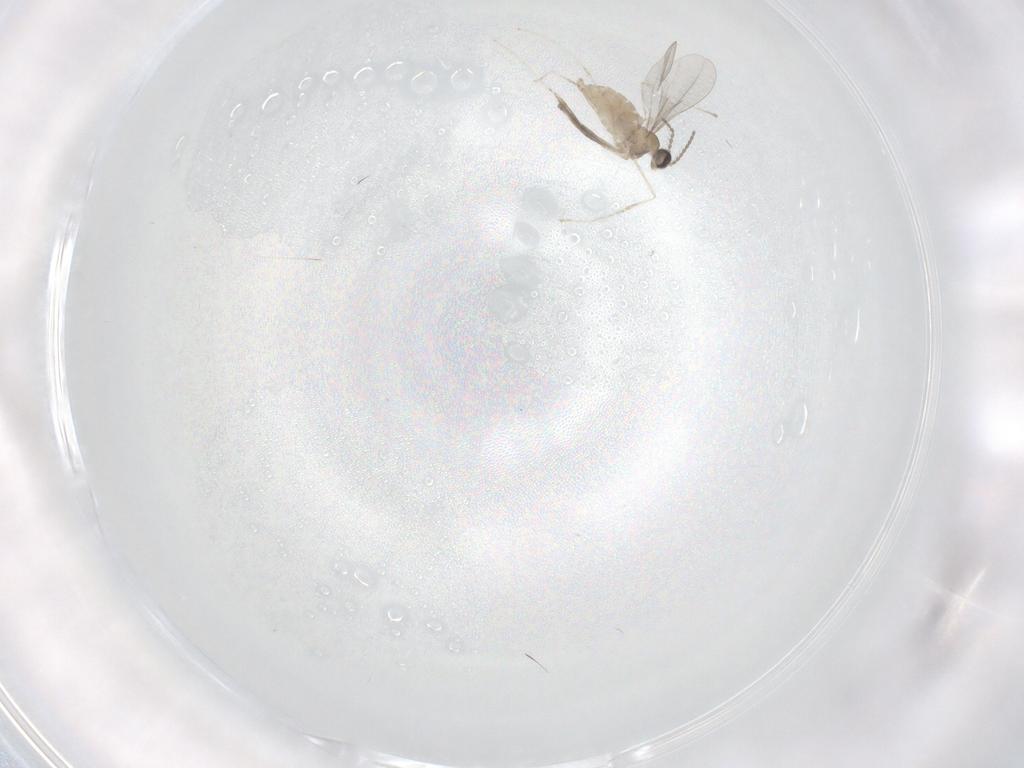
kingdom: Animalia
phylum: Arthropoda
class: Insecta
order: Diptera
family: Cecidomyiidae
